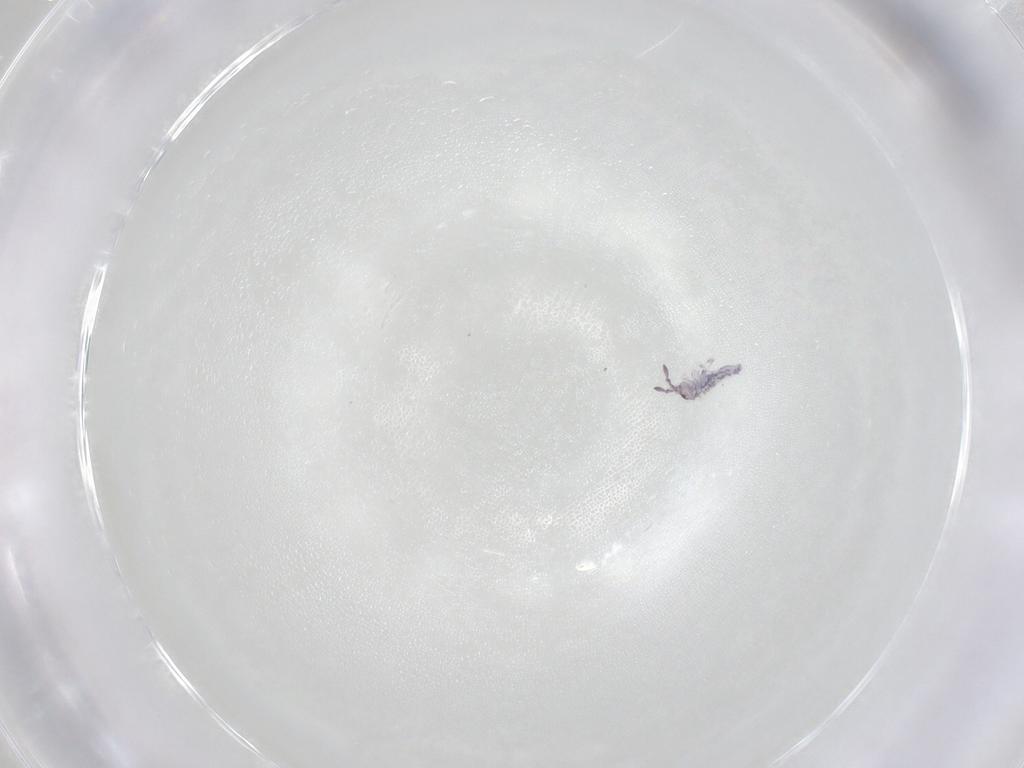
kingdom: Animalia
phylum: Arthropoda
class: Insecta
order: Hymenoptera
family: Scelionidae
